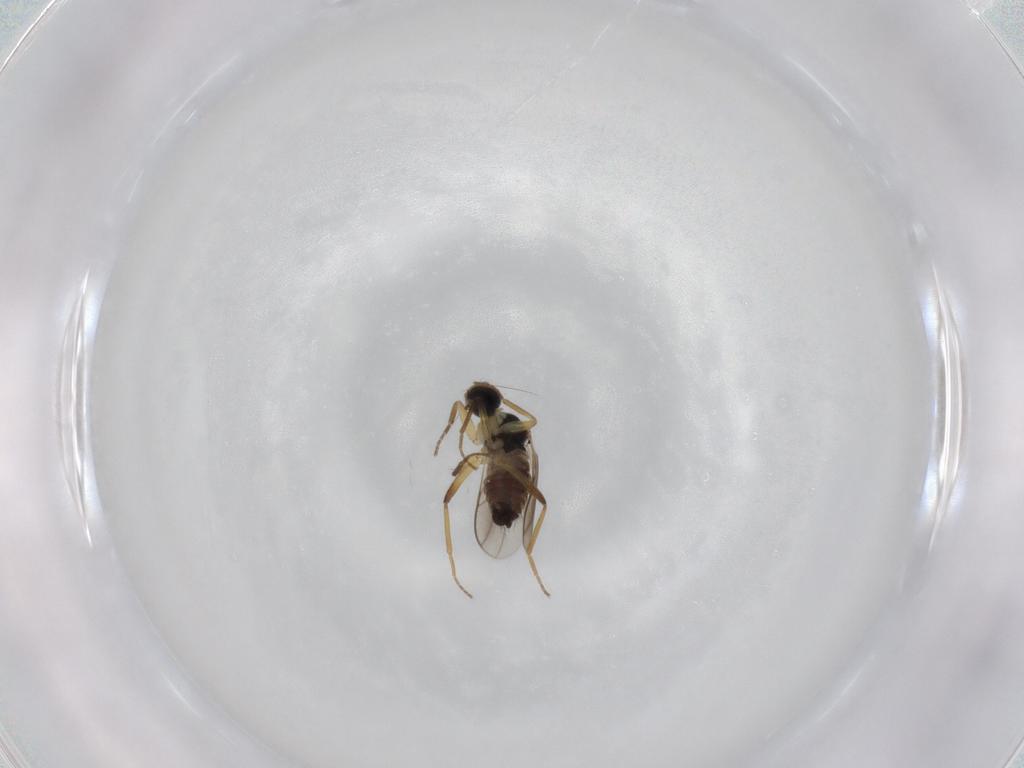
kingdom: Animalia
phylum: Arthropoda
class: Insecta
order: Diptera
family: Hybotidae
